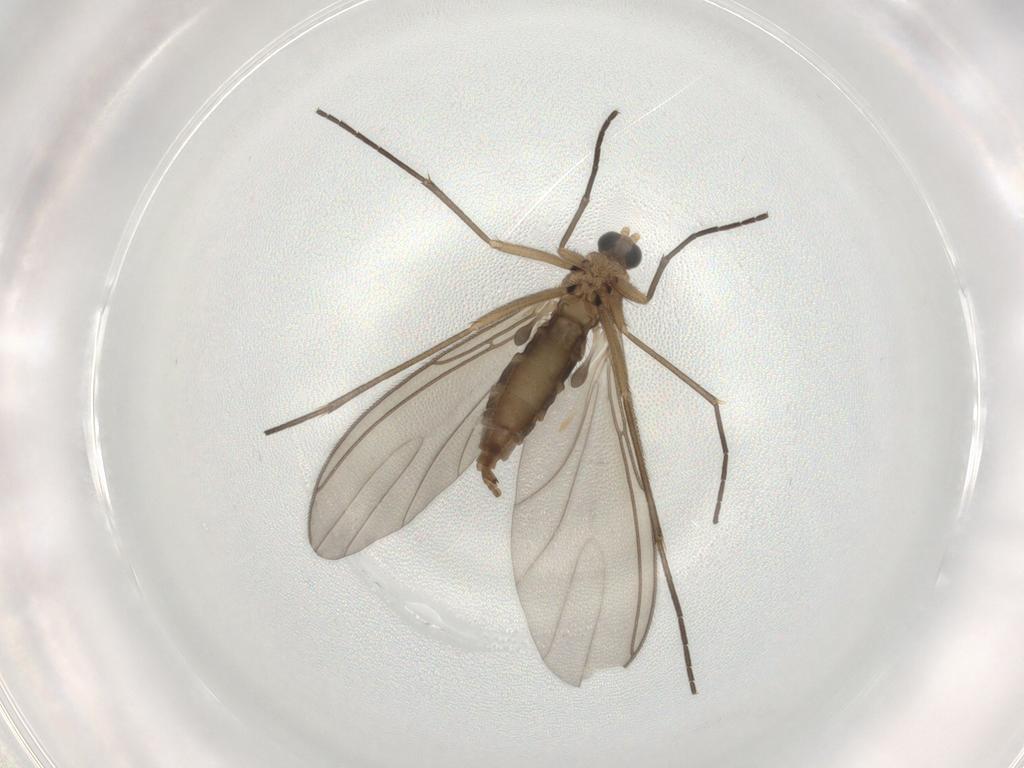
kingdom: Animalia
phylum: Arthropoda
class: Insecta
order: Diptera
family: Sciaridae
